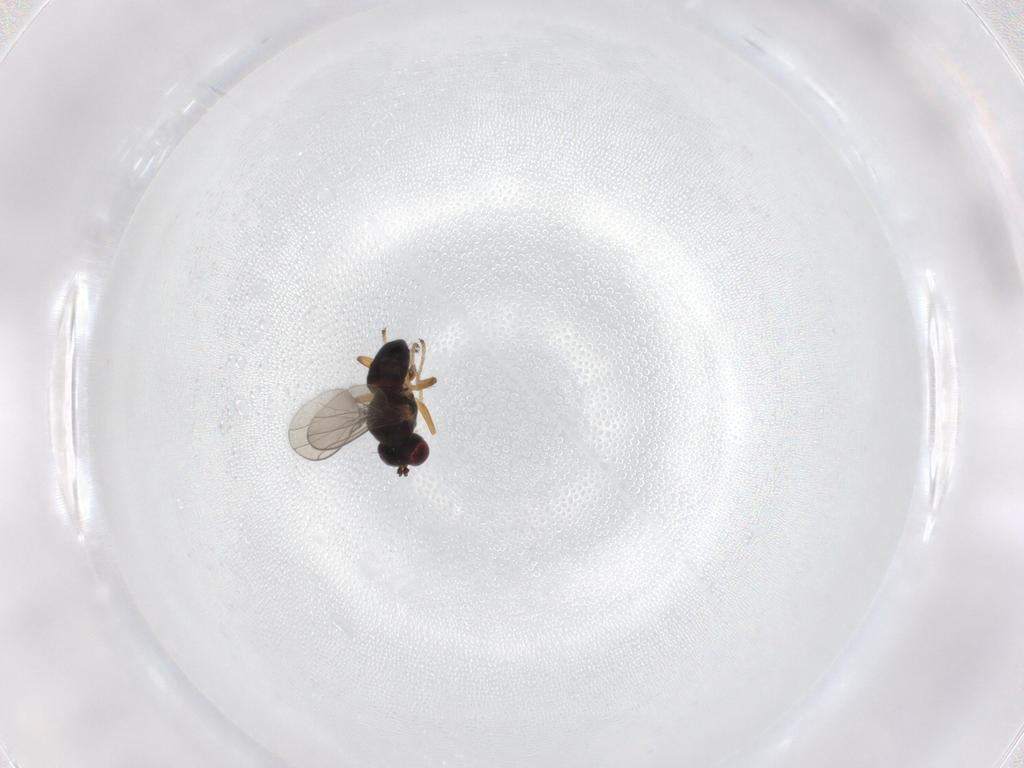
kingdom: Animalia
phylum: Arthropoda
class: Insecta
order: Diptera
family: Ephydridae
